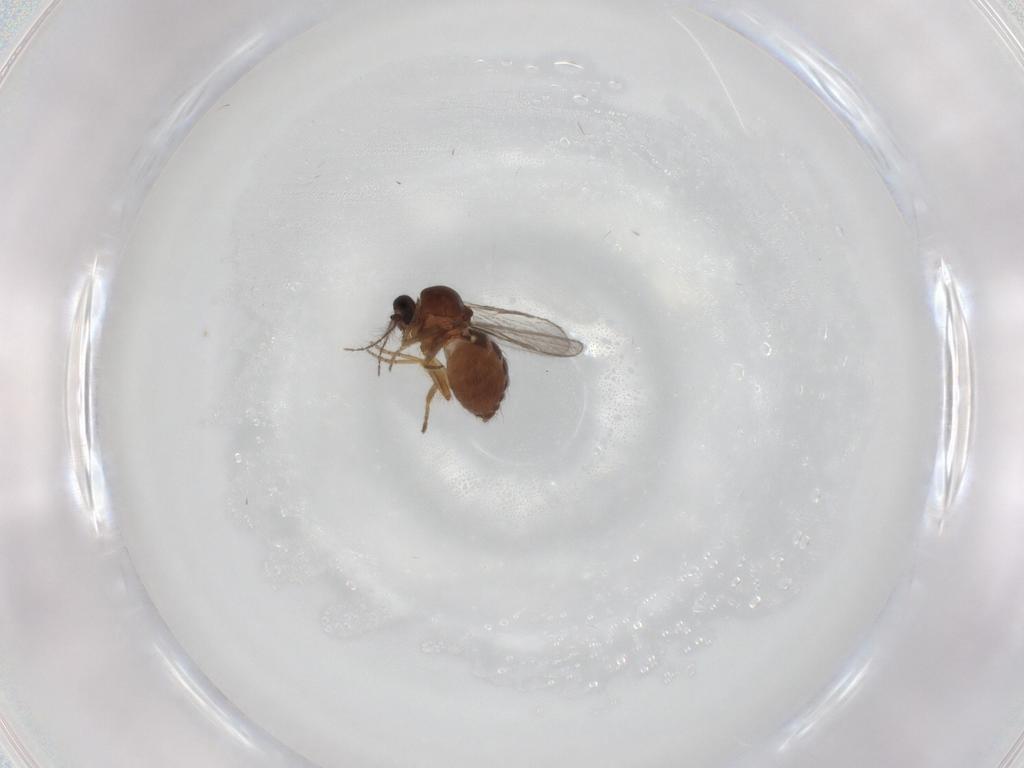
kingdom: Animalia
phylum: Arthropoda
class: Insecta
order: Diptera
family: Ceratopogonidae
